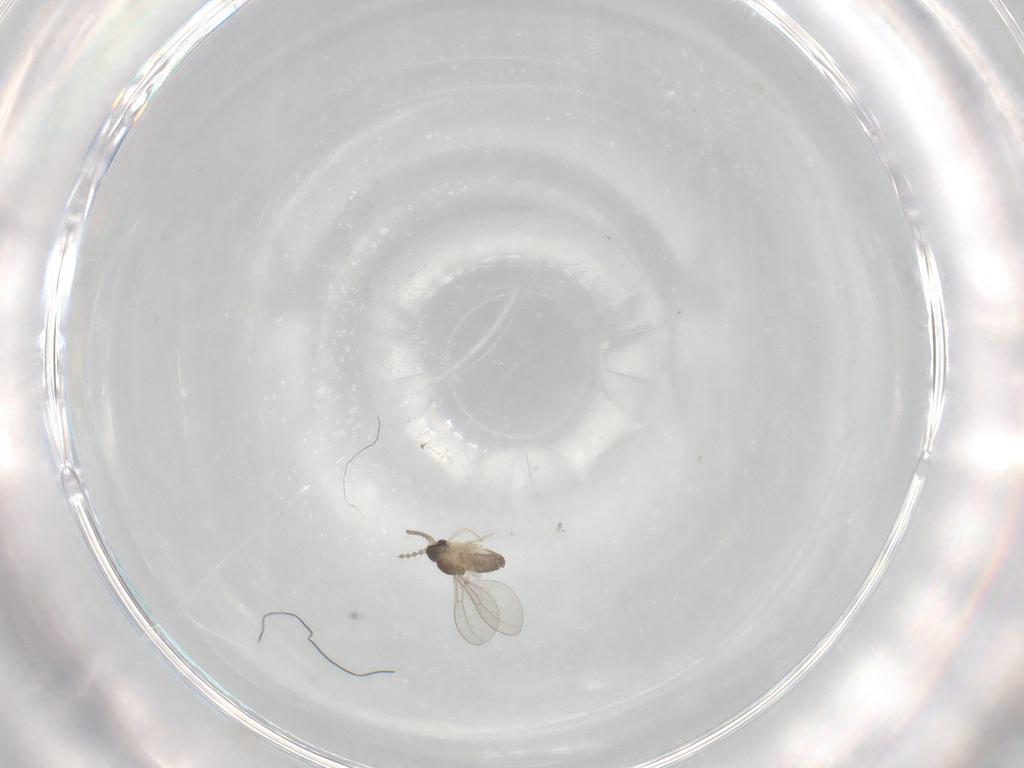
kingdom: Animalia
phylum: Arthropoda
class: Insecta
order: Diptera
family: Cecidomyiidae
